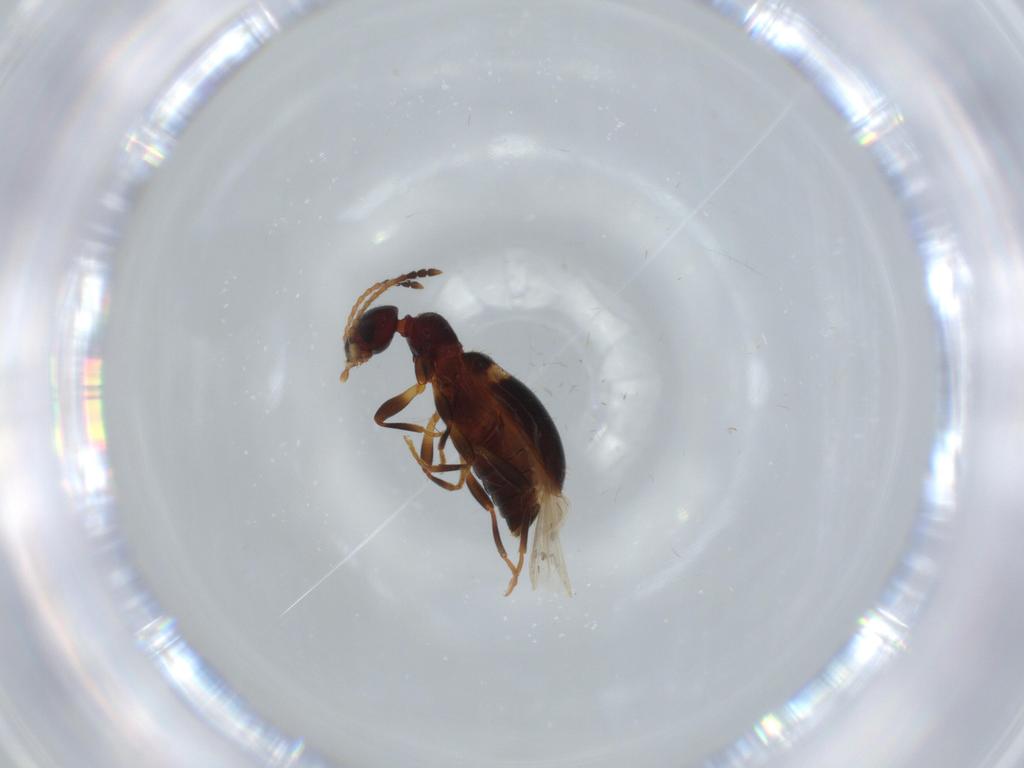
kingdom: Animalia
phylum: Arthropoda
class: Insecta
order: Coleoptera
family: Anthicidae
